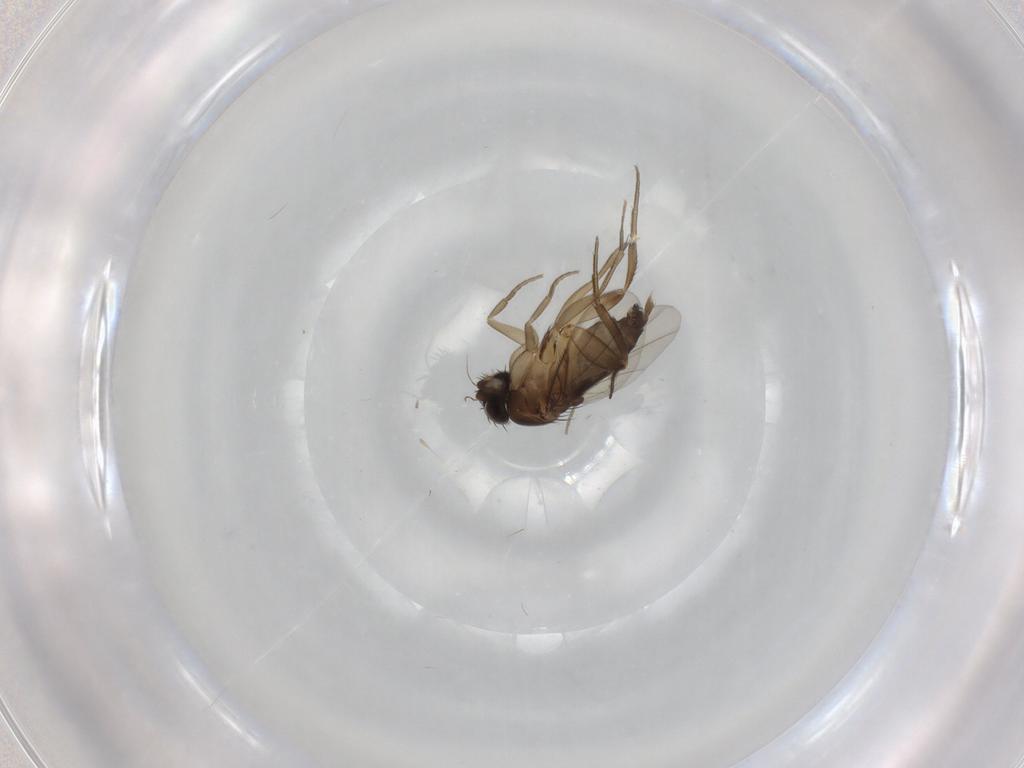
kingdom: Animalia
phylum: Arthropoda
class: Insecta
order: Diptera
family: Phoridae
